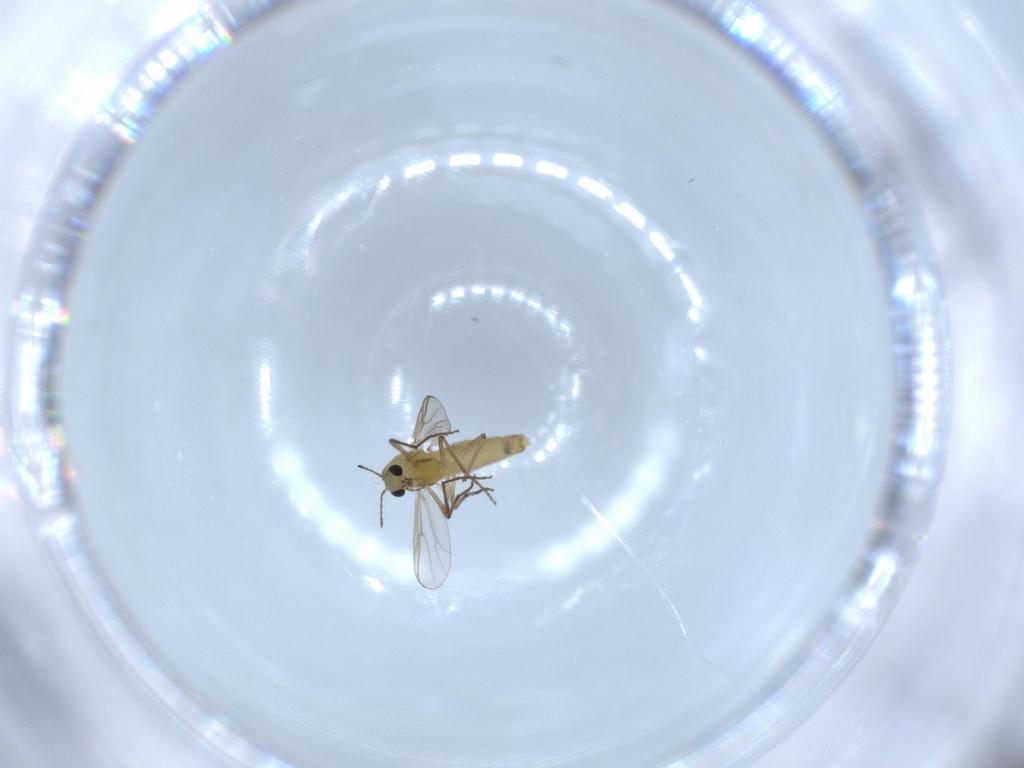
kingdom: Animalia
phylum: Arthropoda
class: Insecta
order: Diptera
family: Chironomidae
